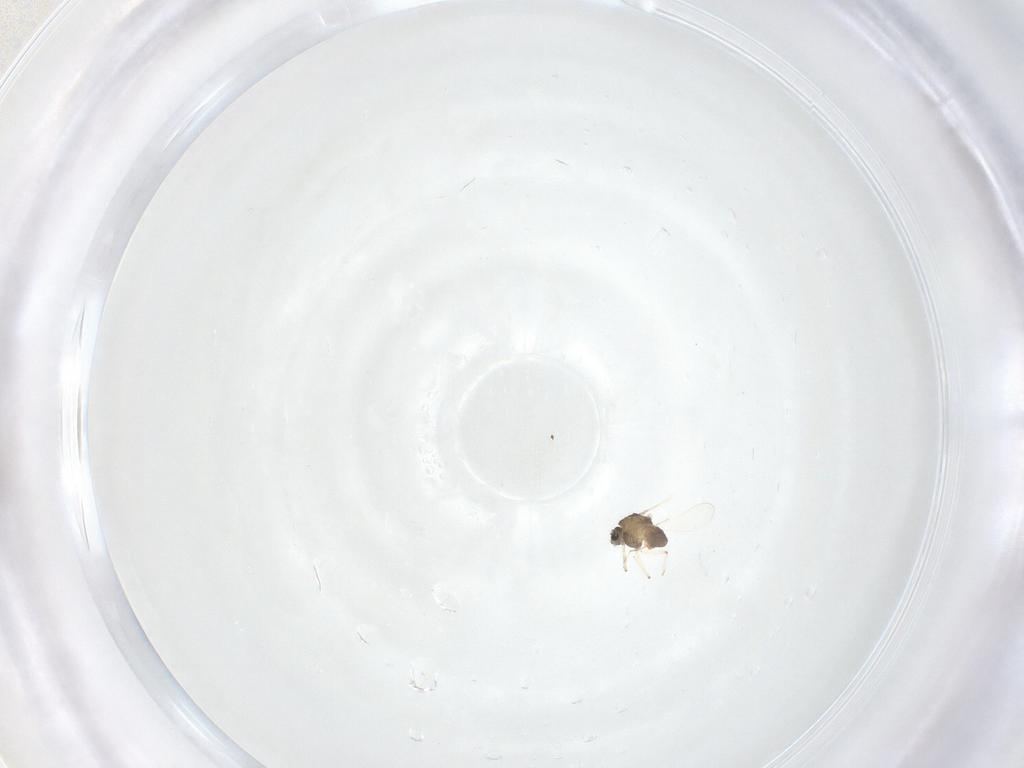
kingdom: Animalia
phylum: Arthropoda
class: Insecta
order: Diptera
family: Chironomidae
